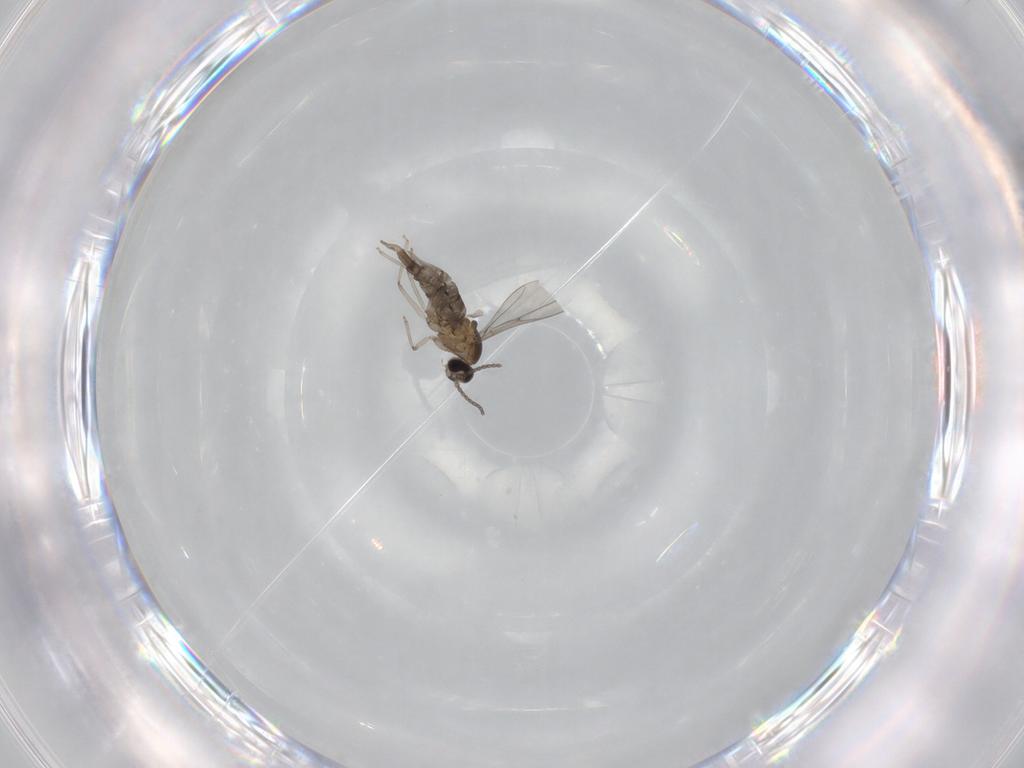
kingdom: Animalia
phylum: Arthropoda
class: Insecta
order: Diptera
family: Cecidomyiidae
